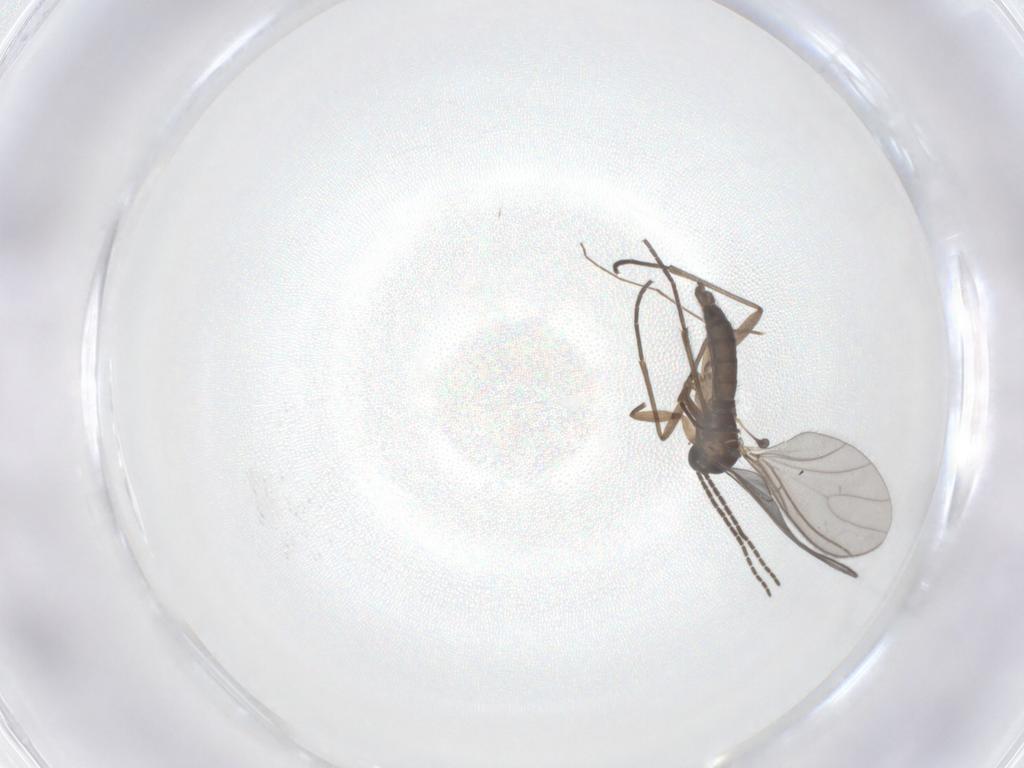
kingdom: Animalia
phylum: Arthropoda
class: Insecta
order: Diptera
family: Sciaridae
